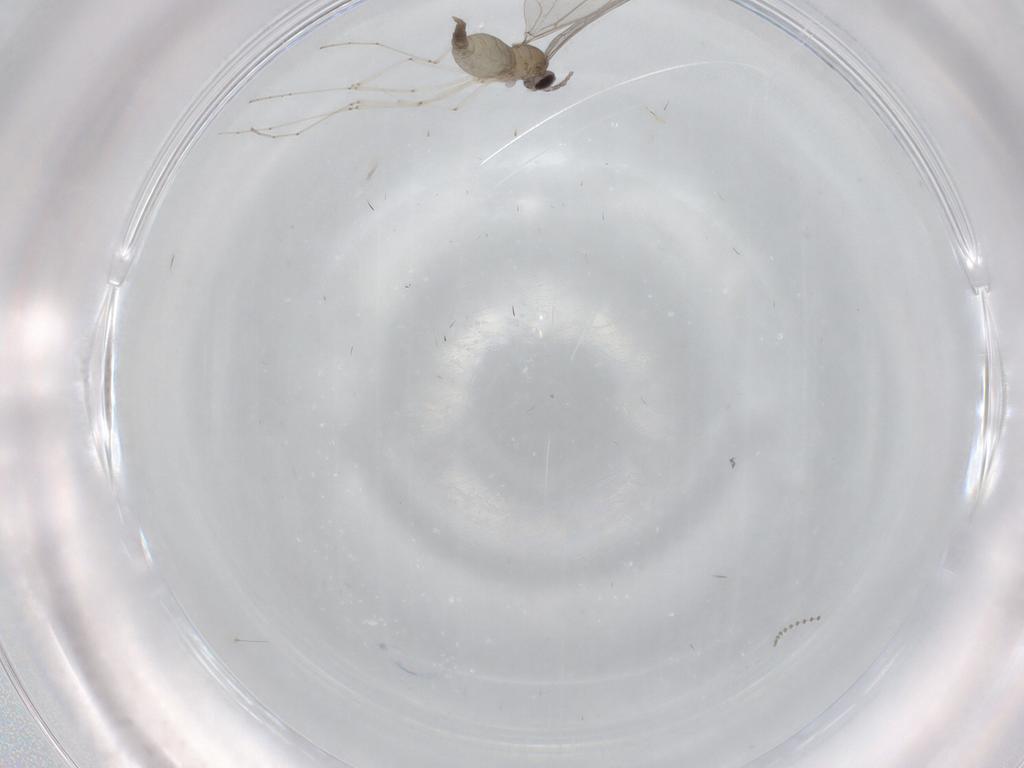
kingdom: Animalia
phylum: Arthropoda
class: Insecta
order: Diptera
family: Cecidomyiidae
